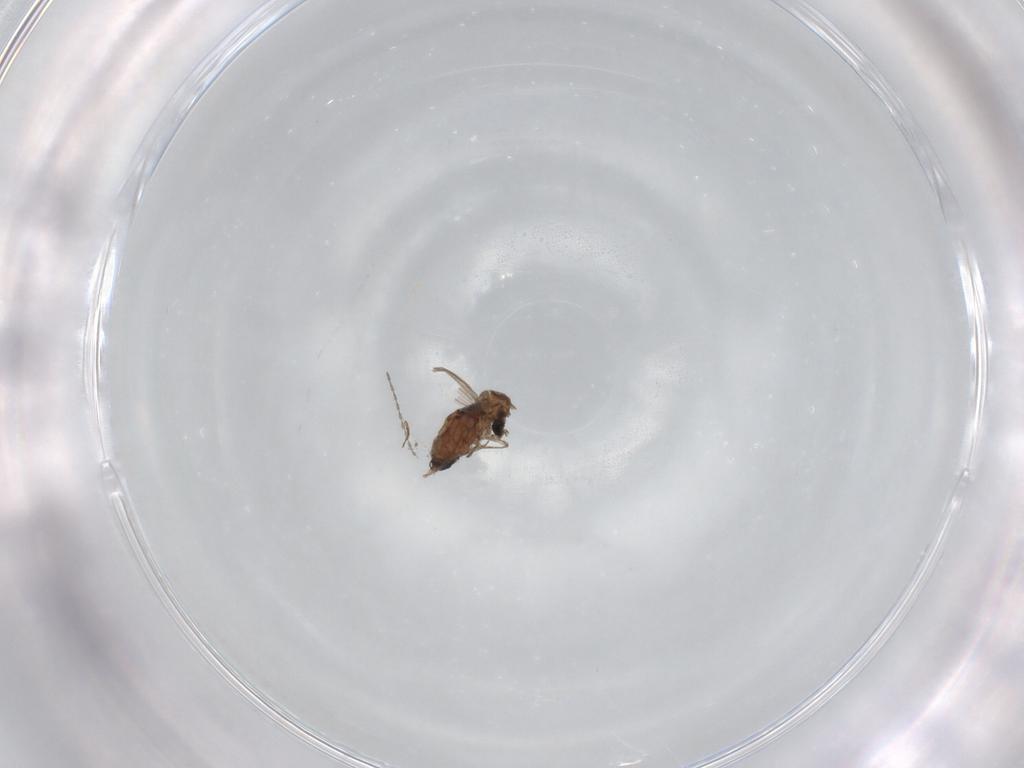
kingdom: Animalia
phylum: Arthropoda
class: Insecta
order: Diptera
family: Psychodidae
